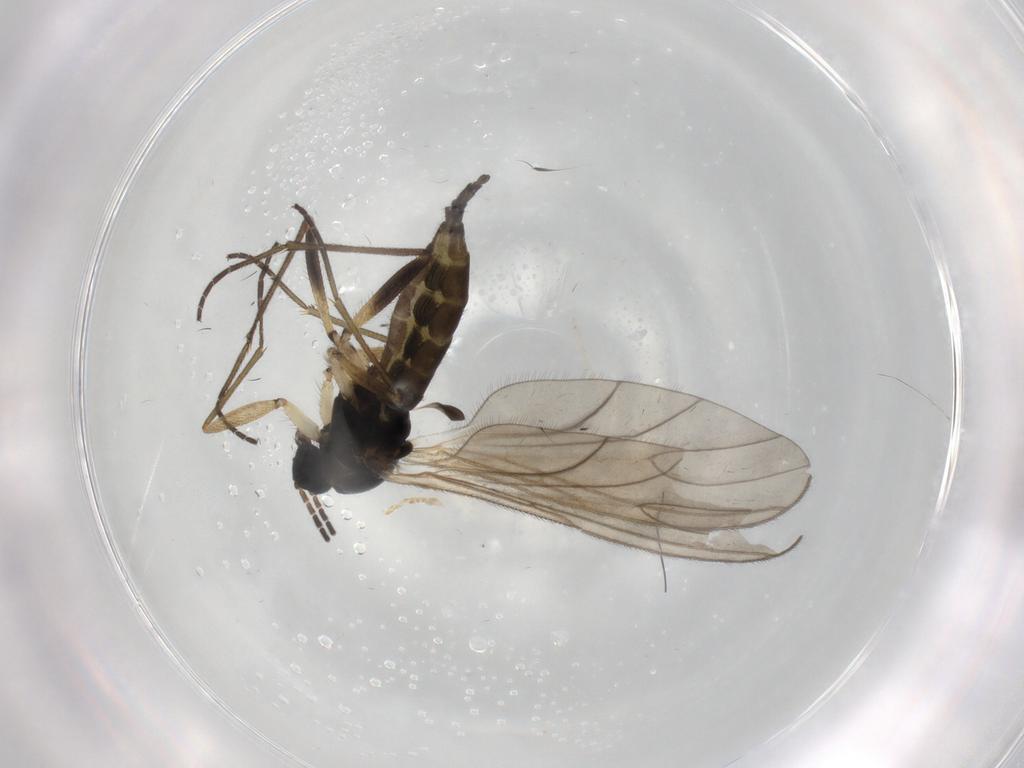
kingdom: Animalia
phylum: Arthropoda
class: Insecta
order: Diptera
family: Sciaridae
